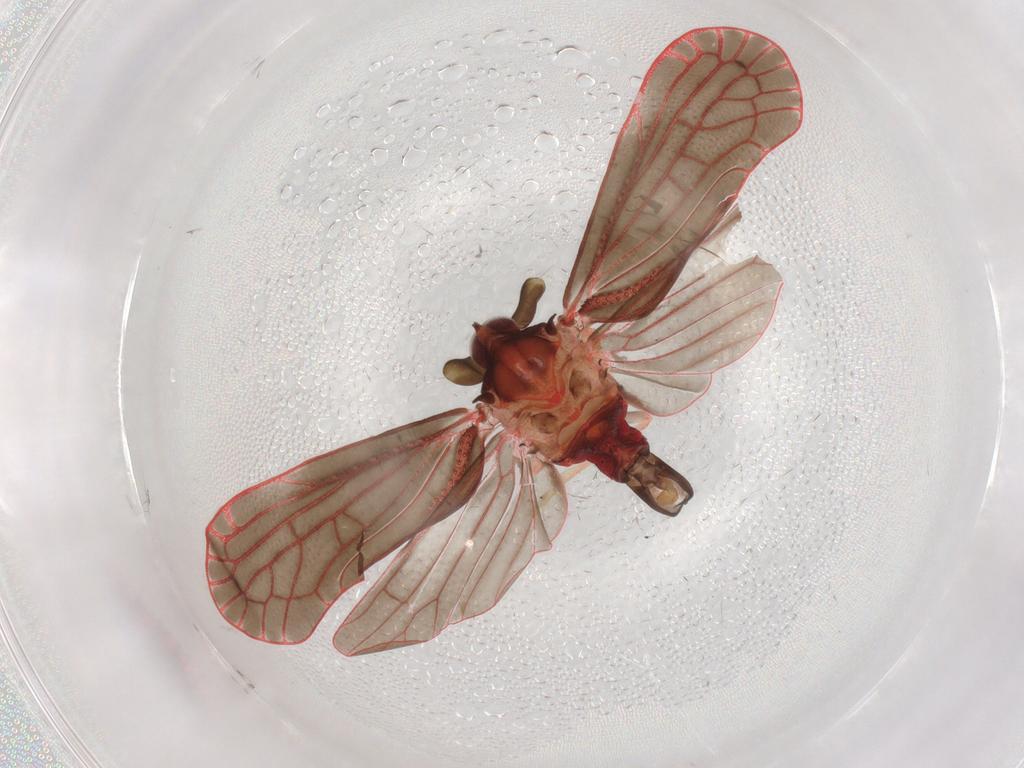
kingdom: Animalia
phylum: Arthropoda
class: Insecta
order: Hemiptera
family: Derbidae
